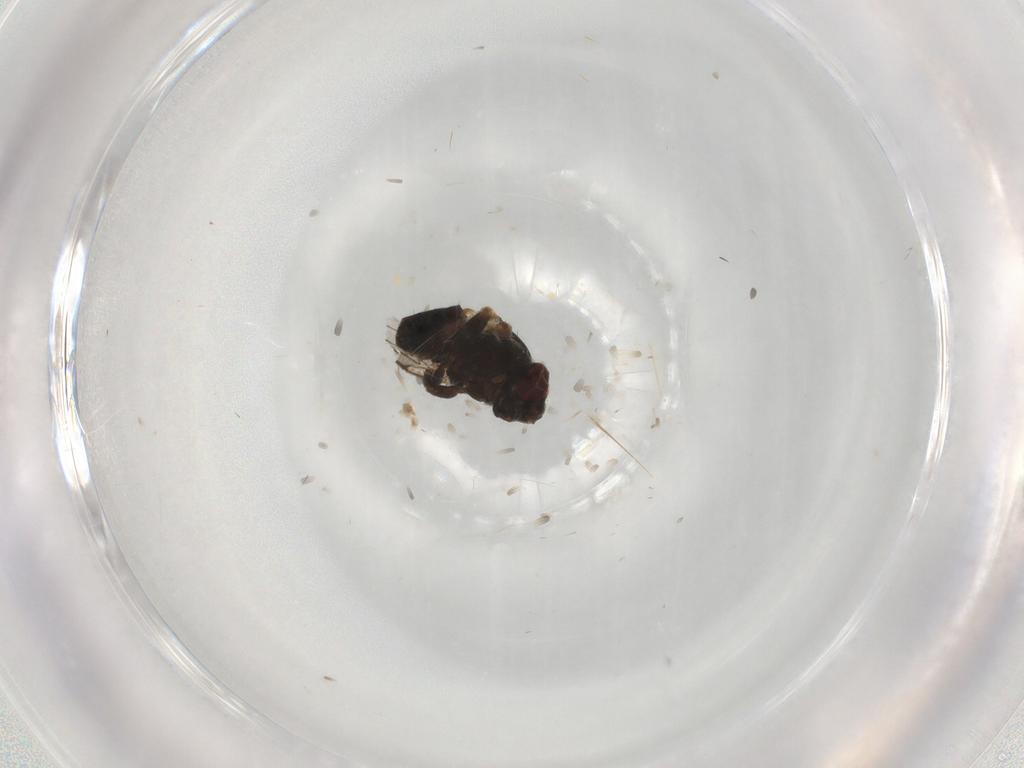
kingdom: Animalia
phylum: Arthropoda
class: Insecta
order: Diptera
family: Chloropidae
